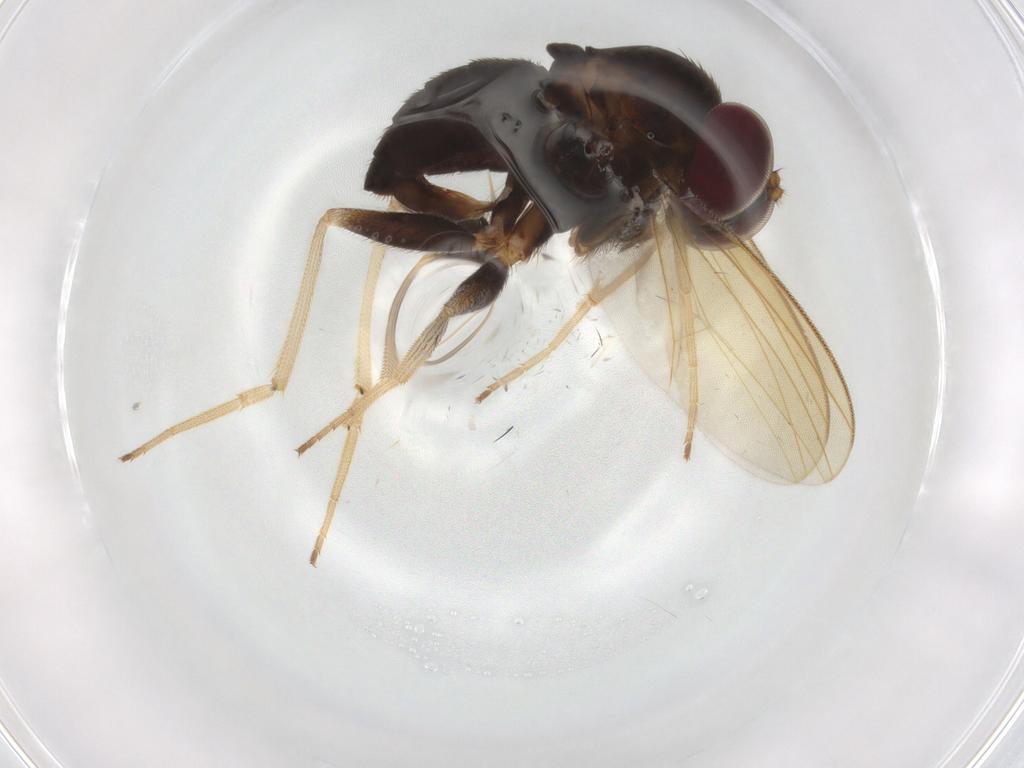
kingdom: Animalia
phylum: Arthropoda
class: Insecta
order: Diptera
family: Dolichopodidae
